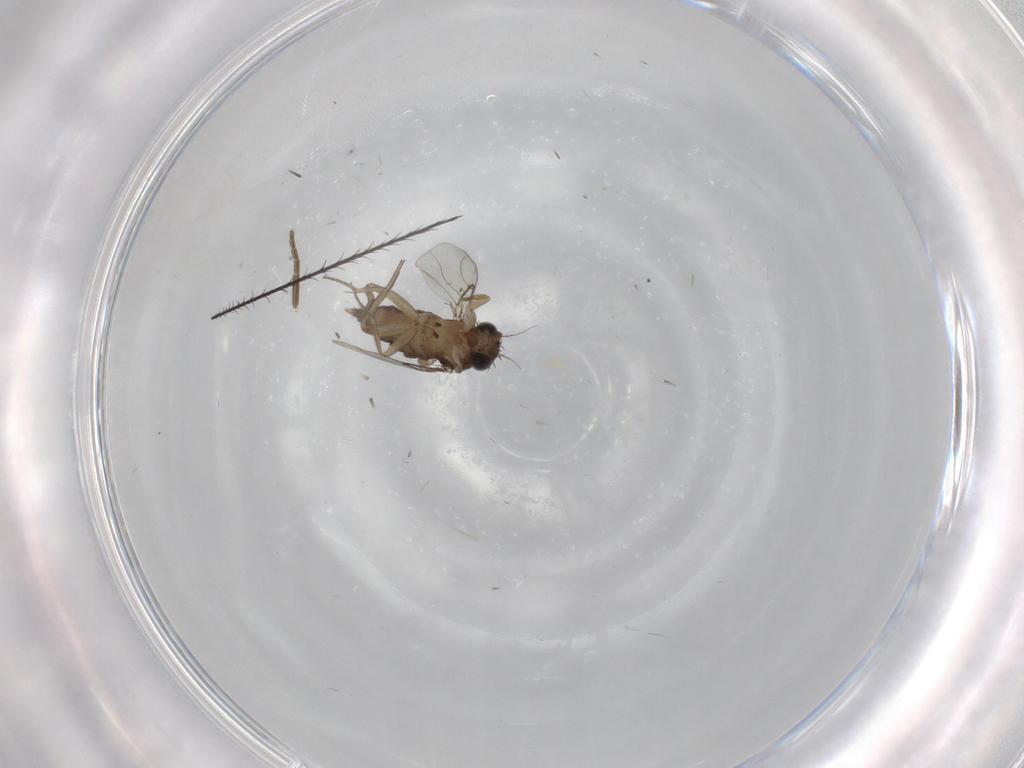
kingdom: Animalia
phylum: Arthropoda
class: Insecta
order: Diptera
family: Phoridae
